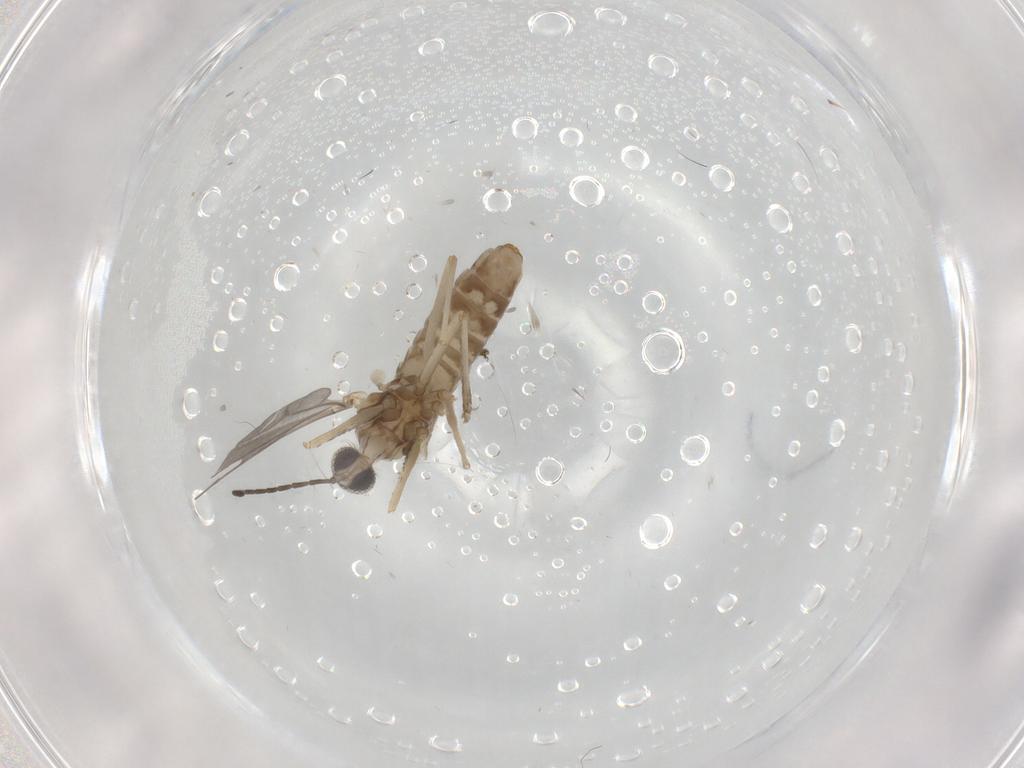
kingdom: Animalia
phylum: Arthropoda
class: Insecta
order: Diptera
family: Cecidomyiidae
